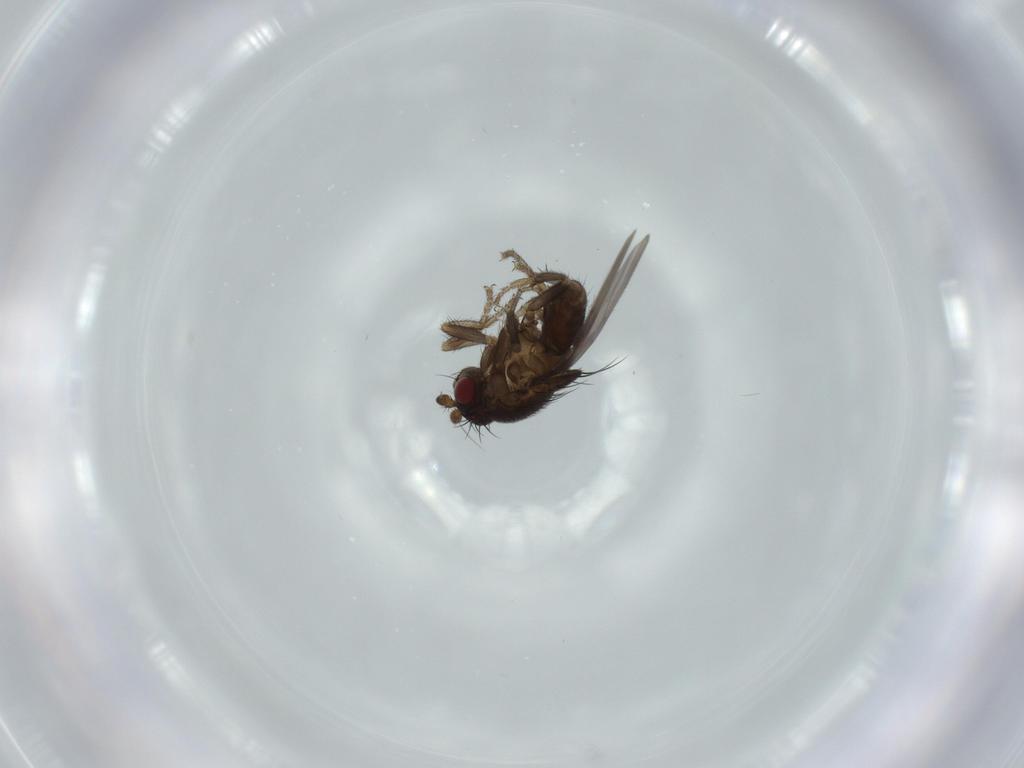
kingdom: Animalia
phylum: Arthropoda
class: Insecta
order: Diptera
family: Sphaeroceridae
